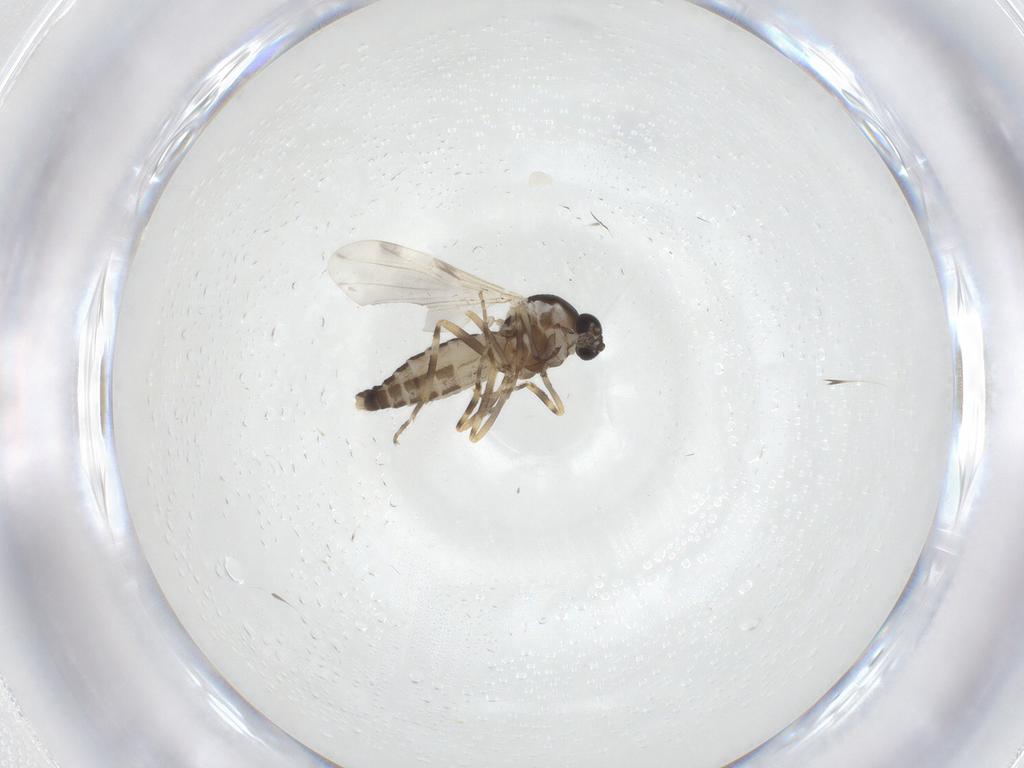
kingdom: Animalia
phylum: Arthropoda
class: Insecta
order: Diptera
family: Ceratopogonidae
